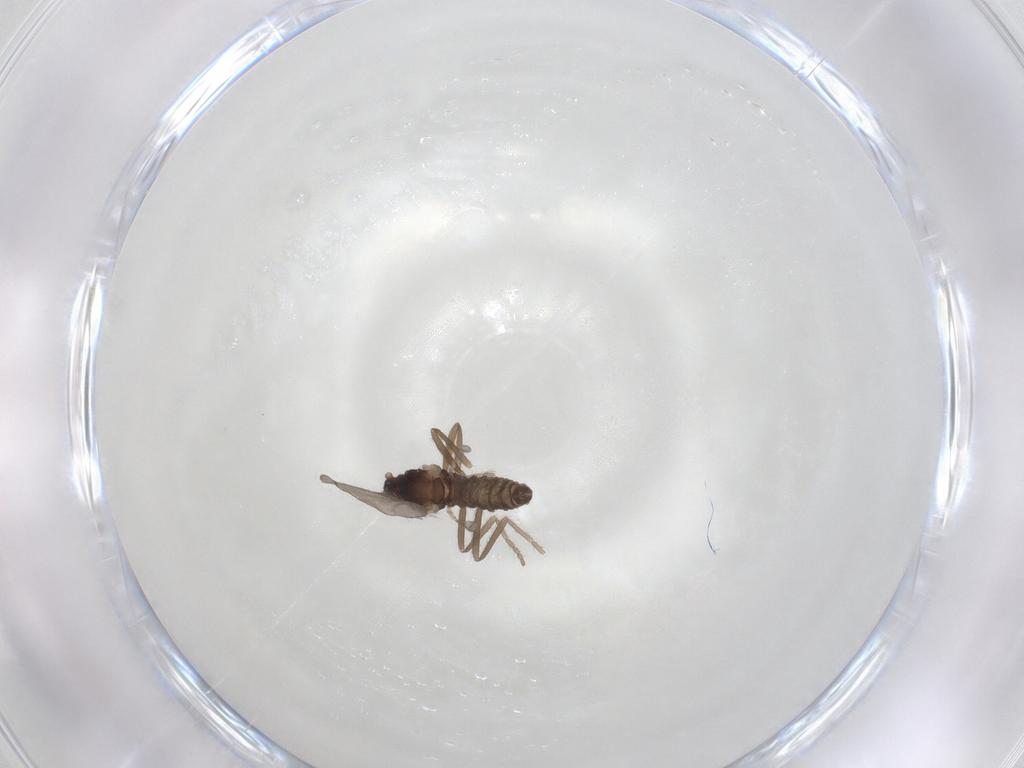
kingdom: Animalia
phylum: Arthropoda
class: Insecta
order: Diptera
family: Cecidomyiidae
